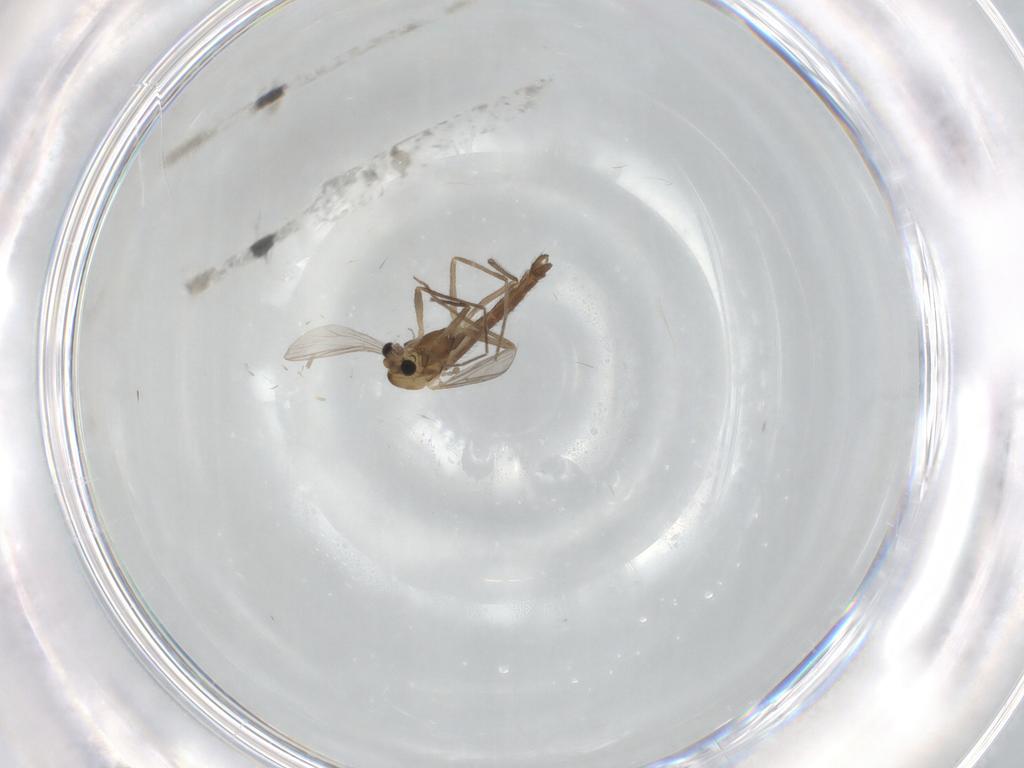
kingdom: Animalia
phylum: Arthropoda
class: Insecta
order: Diptera
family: Chironomidae
